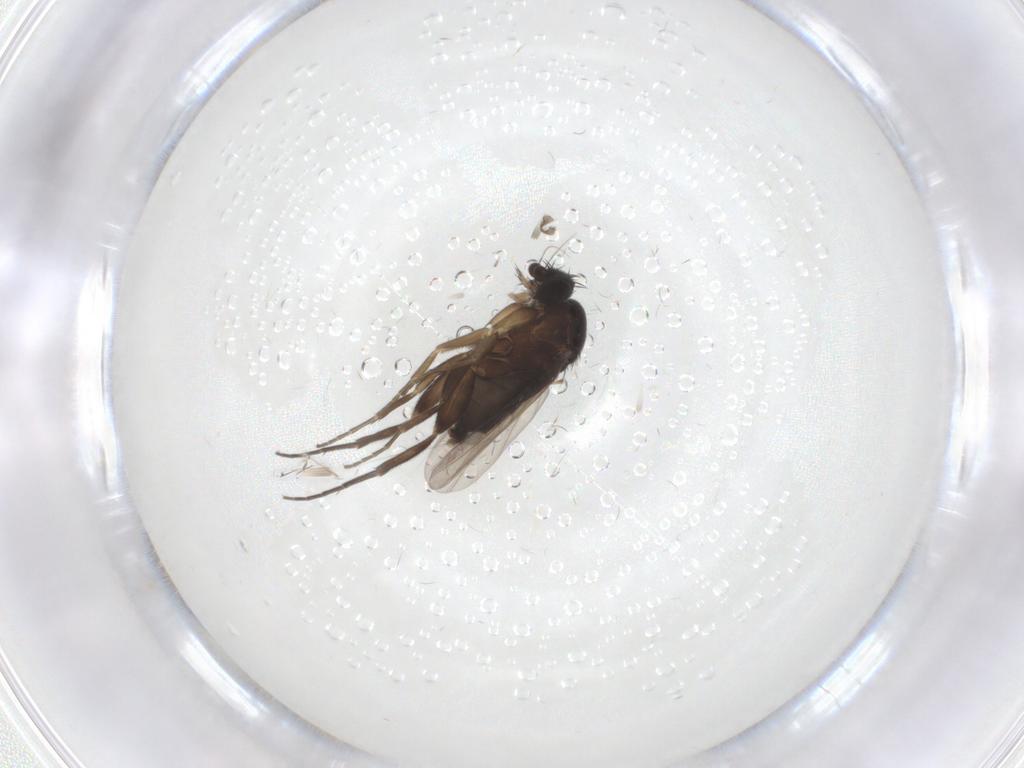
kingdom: Animalia
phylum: Arthropoda
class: Insecta
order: Diptera
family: Phoridae
